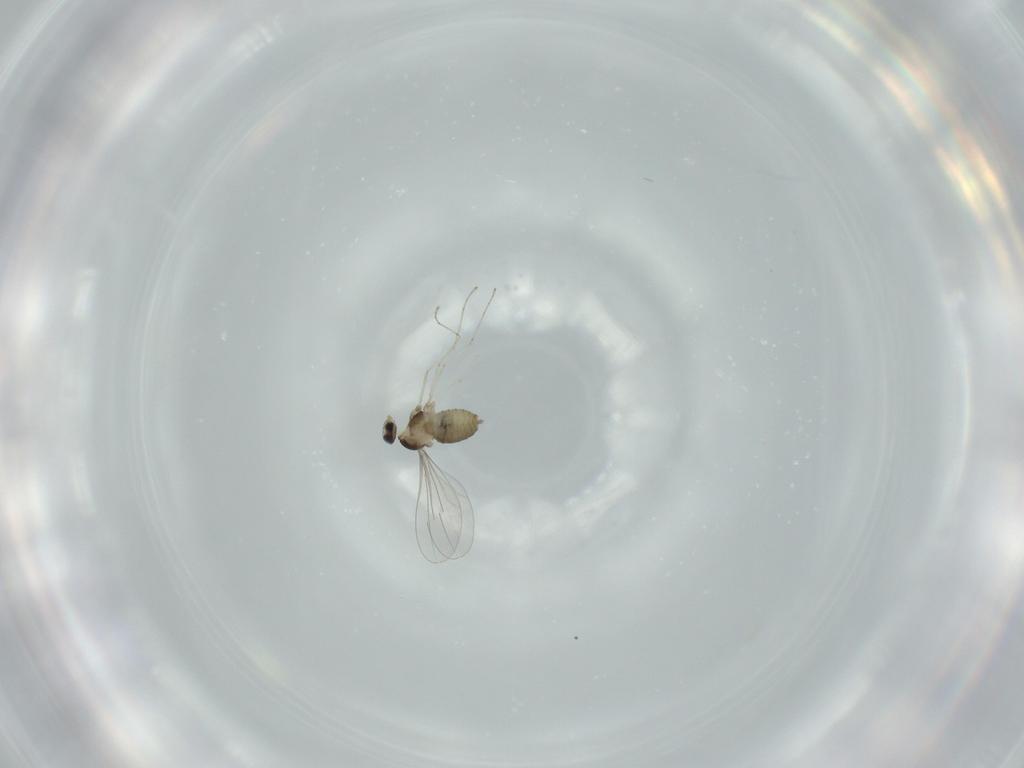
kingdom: Animalia
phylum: Arthropoda
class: Insecta
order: Diptera
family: Cecidomyiidae
